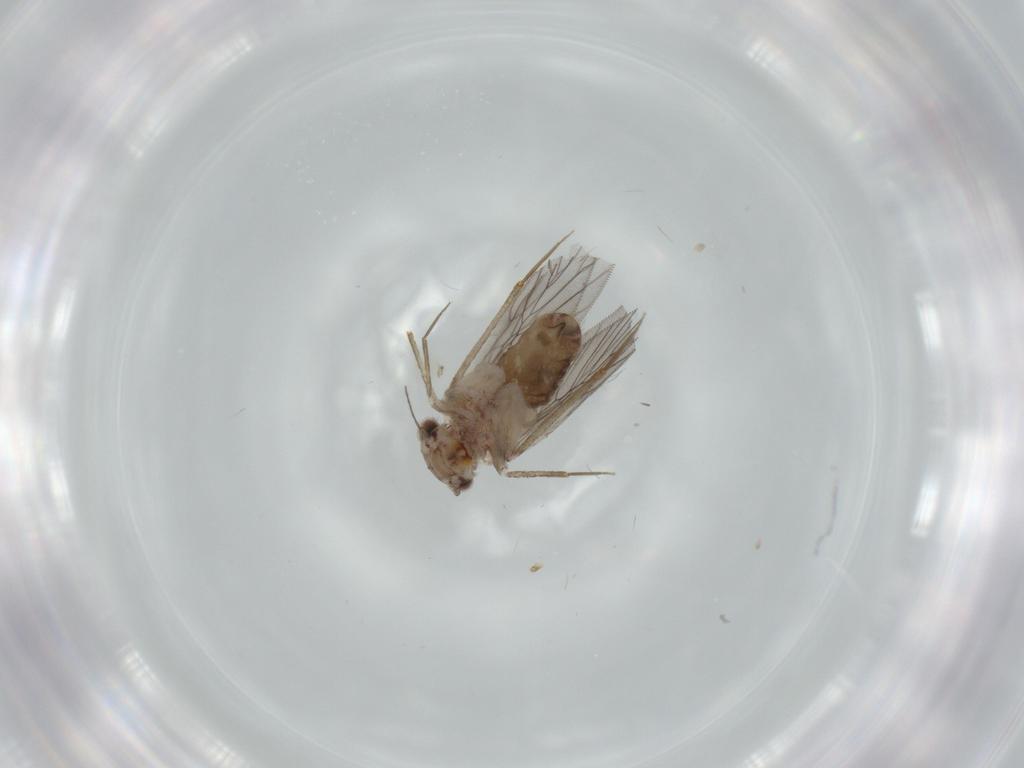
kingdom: Animalia
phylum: Arthropoda
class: Insecta
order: Psocodea
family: Lepidopsocidae
